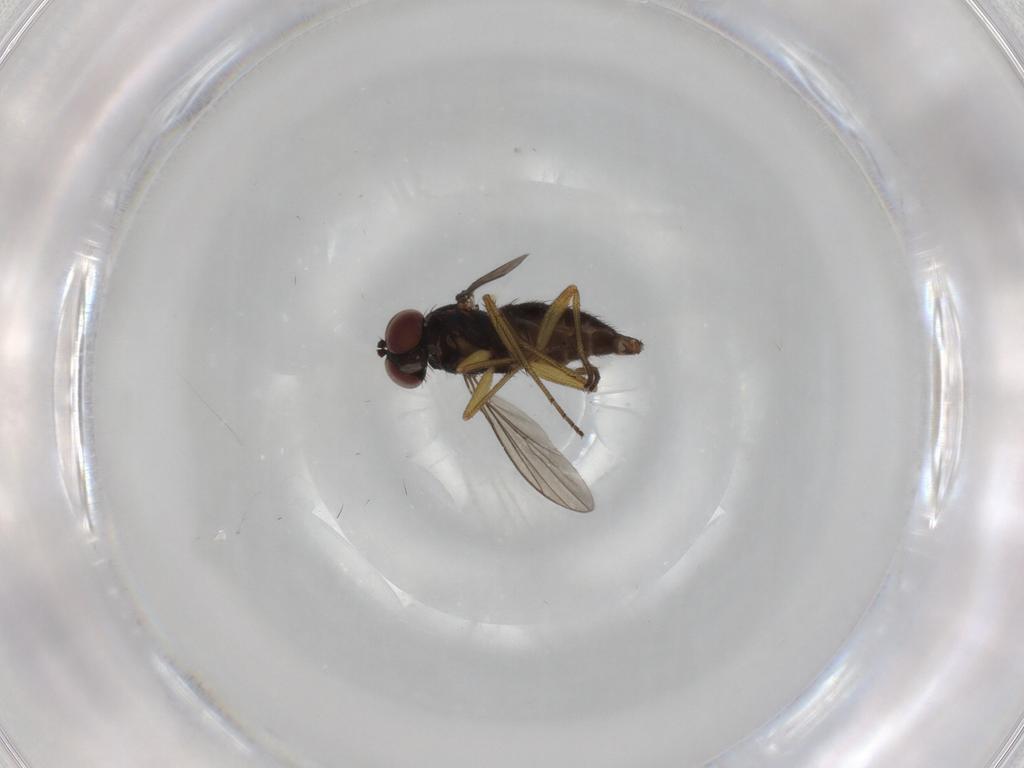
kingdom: Animalia
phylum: Arthropoda
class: Insecta
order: Diptera
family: Dolichopodidae
